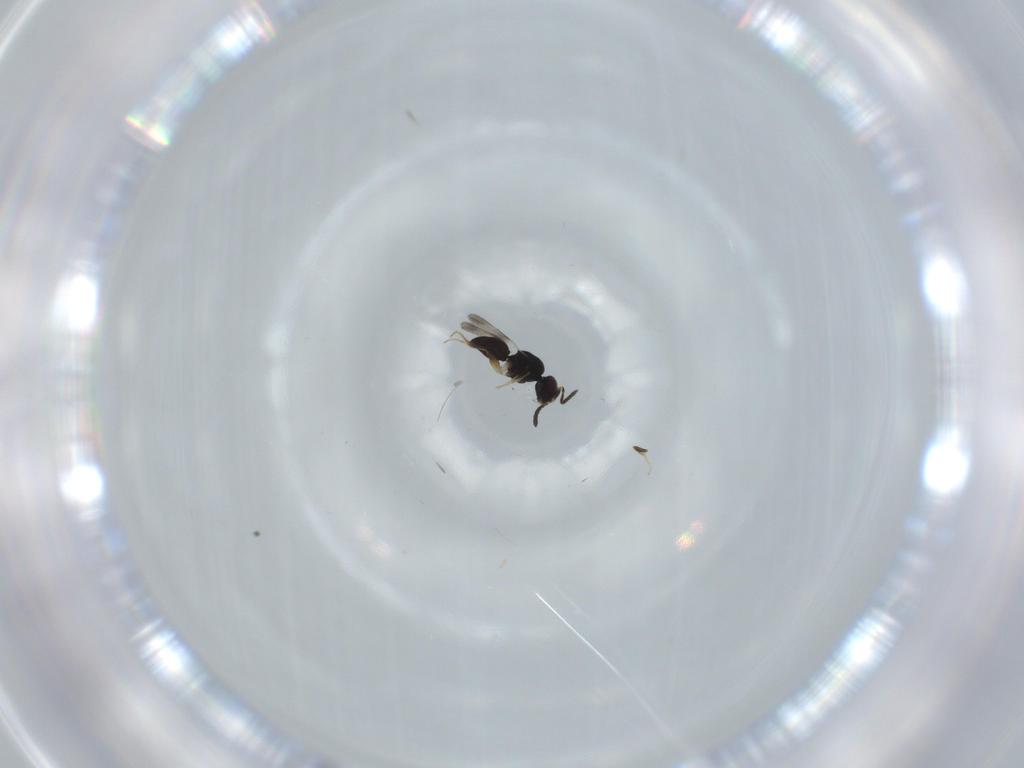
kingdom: Animalia
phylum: Arthropoda
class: Insecta
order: Hymenoptera
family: Platygastridae
